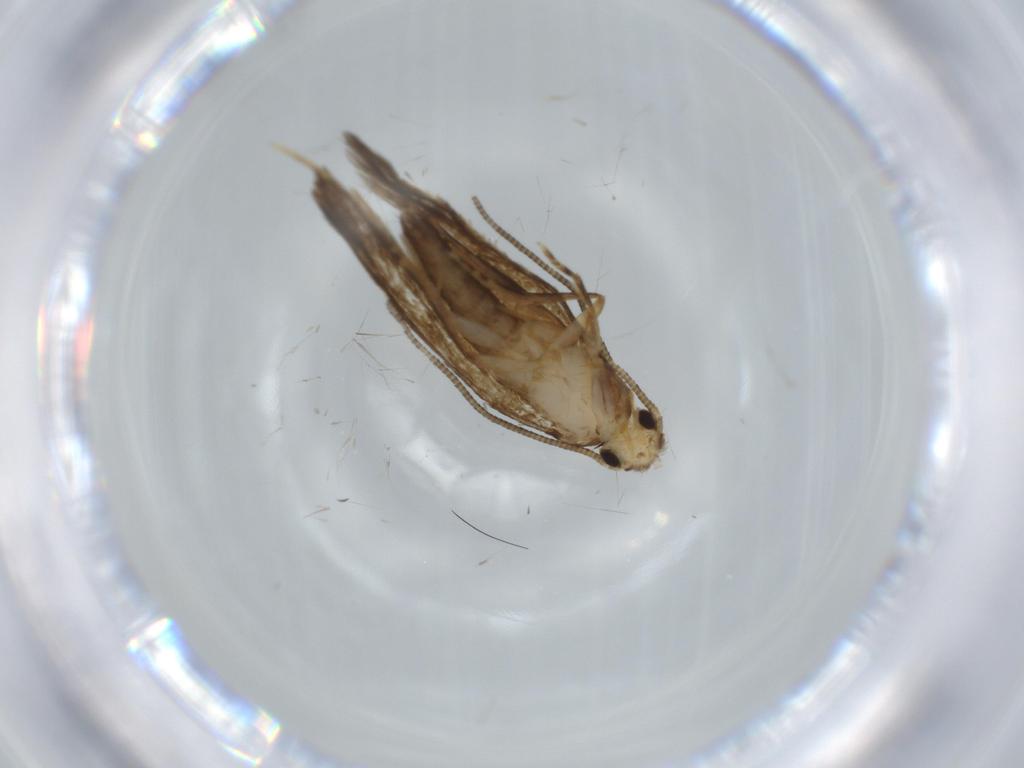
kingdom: Animalia
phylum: Arthropoda
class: Insecta
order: Lepidoptera
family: Tineidae
